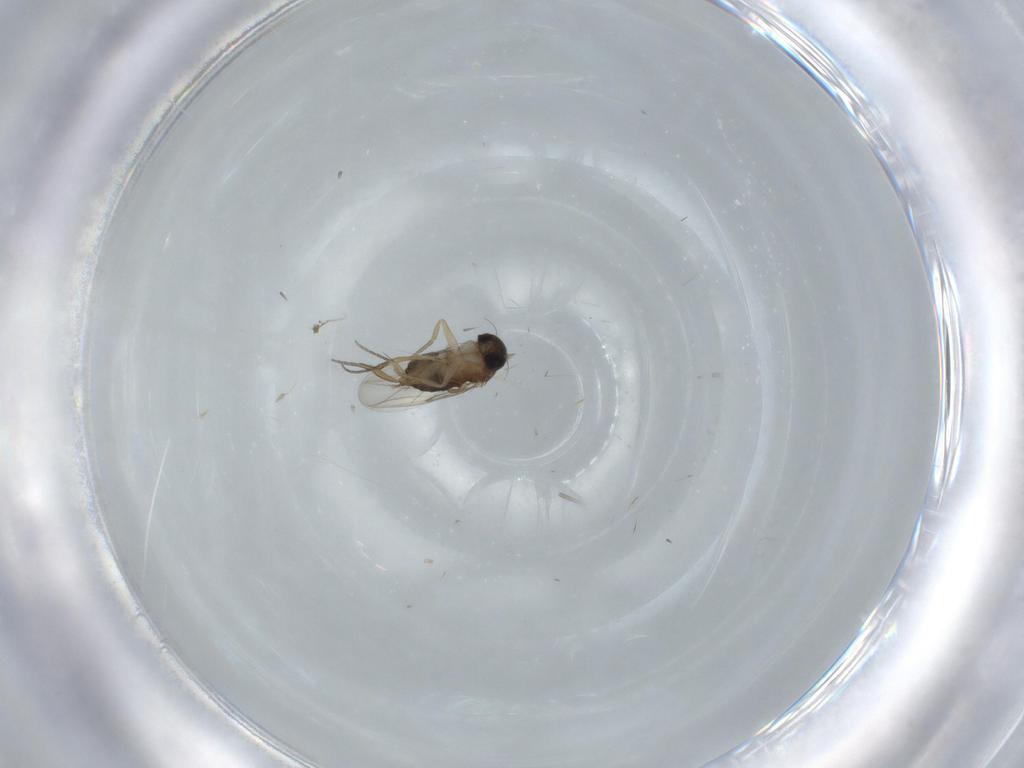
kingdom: Animalia
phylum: Arthropoda
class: Insecta
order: Diptera
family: Phoridae
